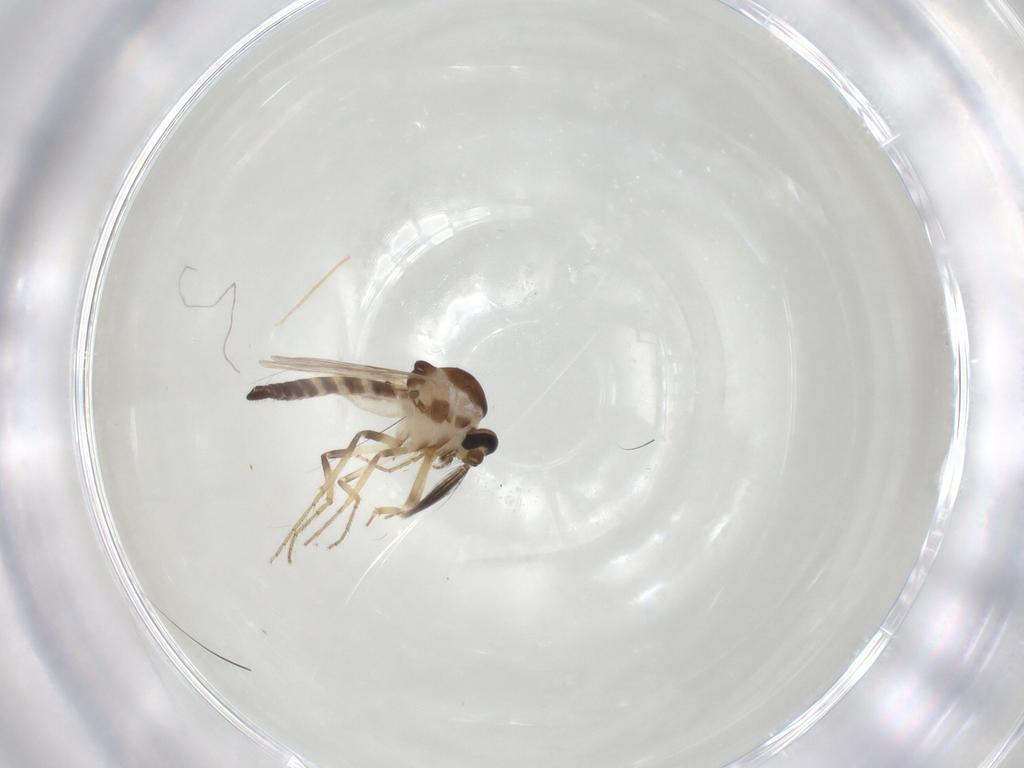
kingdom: Animalia
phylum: Arthropoda
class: Insecta
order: Diptera
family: Ceratopogonidae
